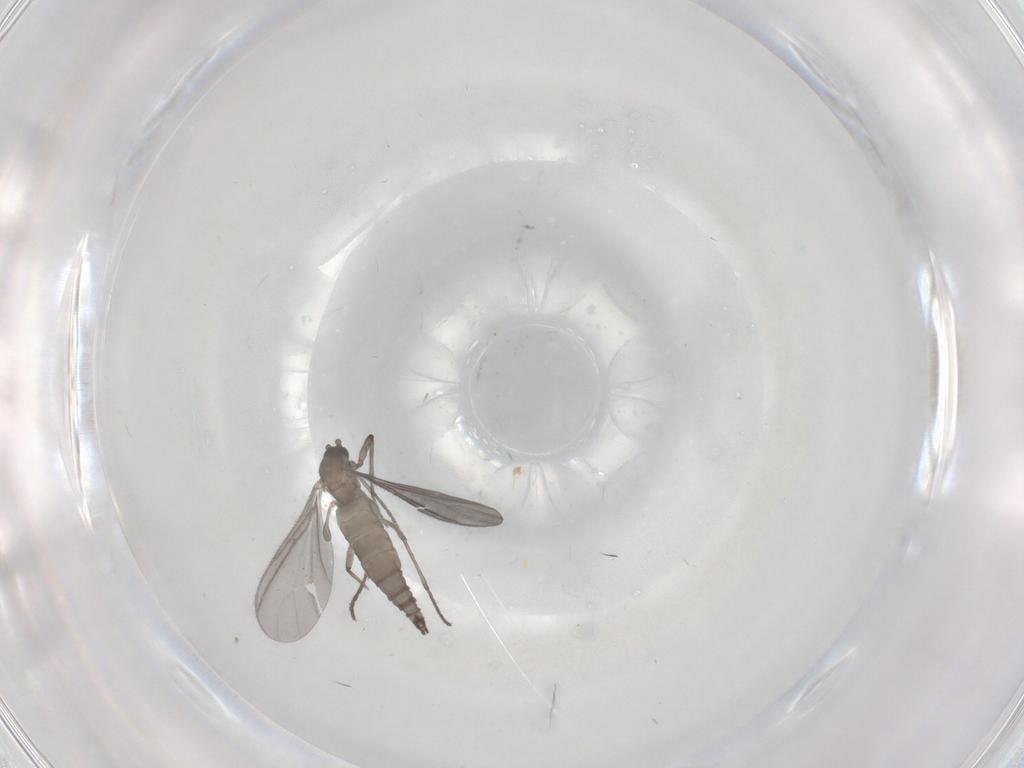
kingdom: Animalia
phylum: Arthropoda
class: Insecta
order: Diptera
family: Sciaridae
